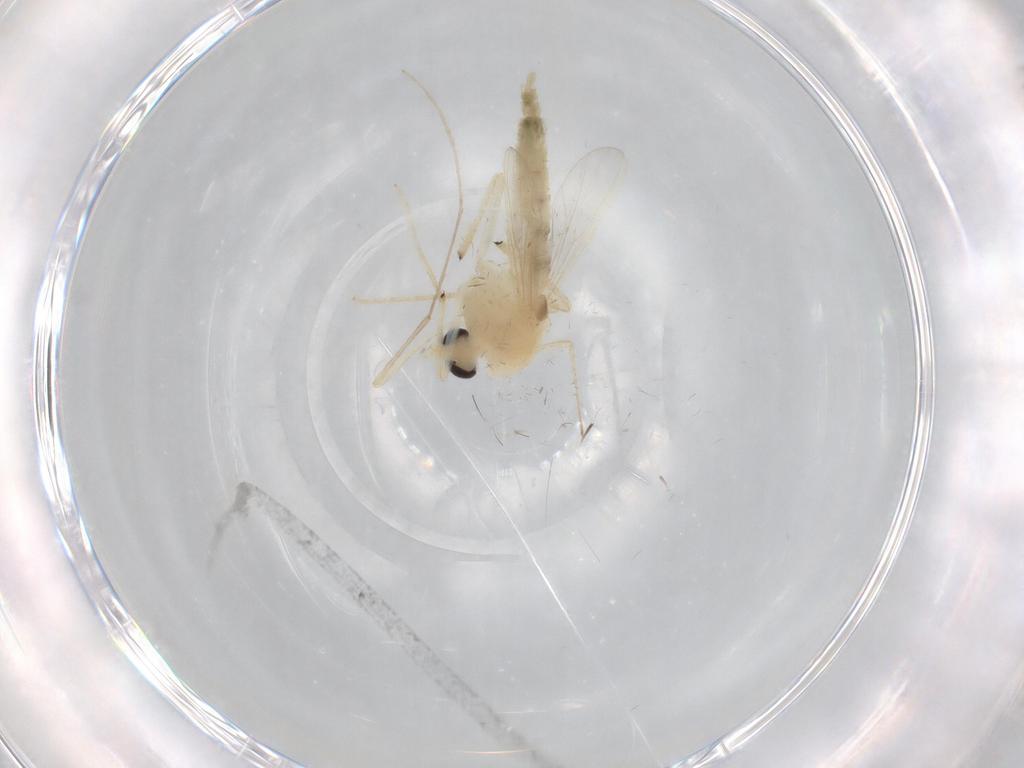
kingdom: Animalia
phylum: Arthropoda
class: Insecta
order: Diptera
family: Chironomidae
